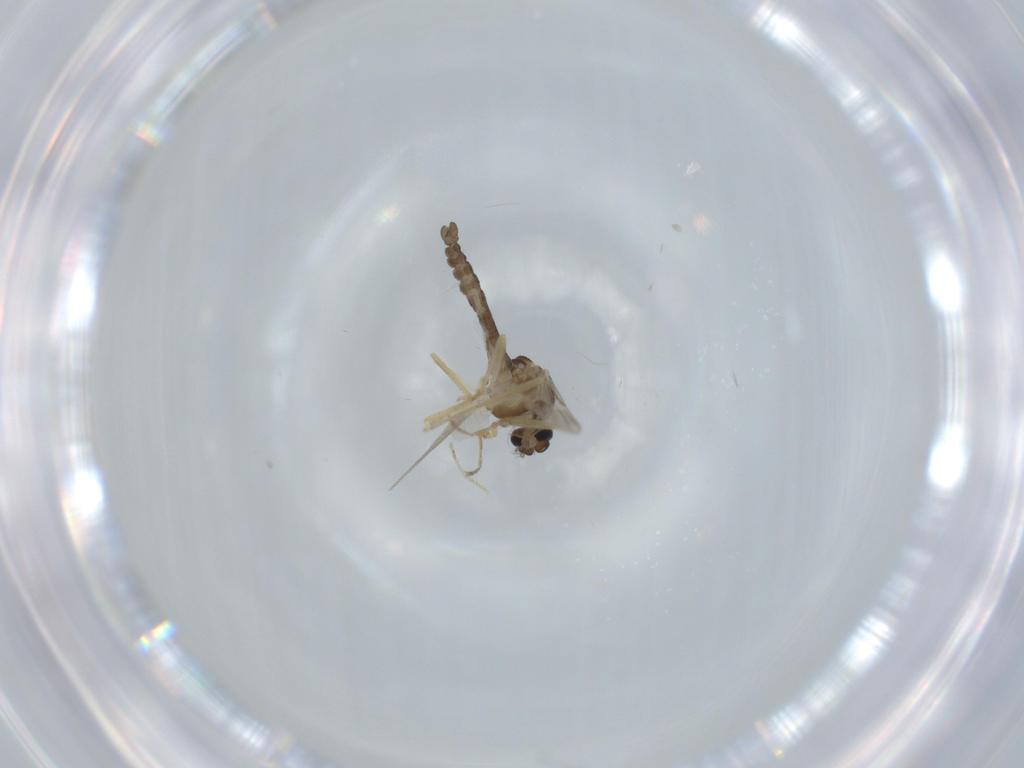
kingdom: Animalia
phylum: Arthropoda
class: Insecta
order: Diptera
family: Ceratopogonidae
